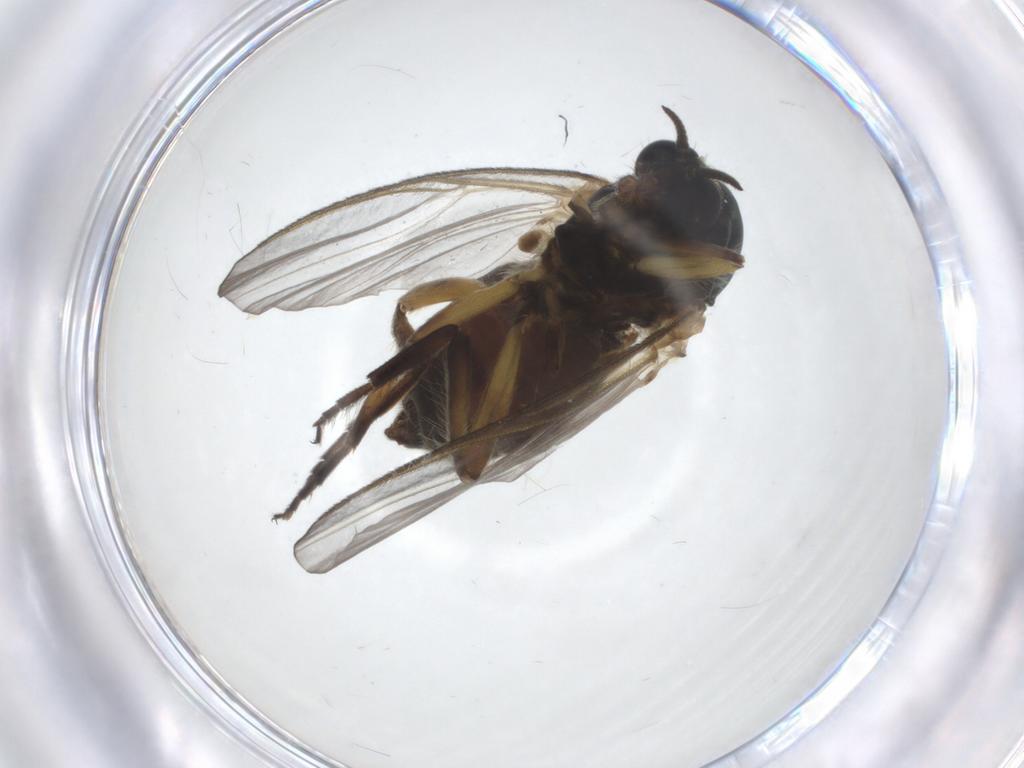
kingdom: Animalia
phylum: Arthropoda
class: Insecta
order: Diptera
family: Simuliidae
